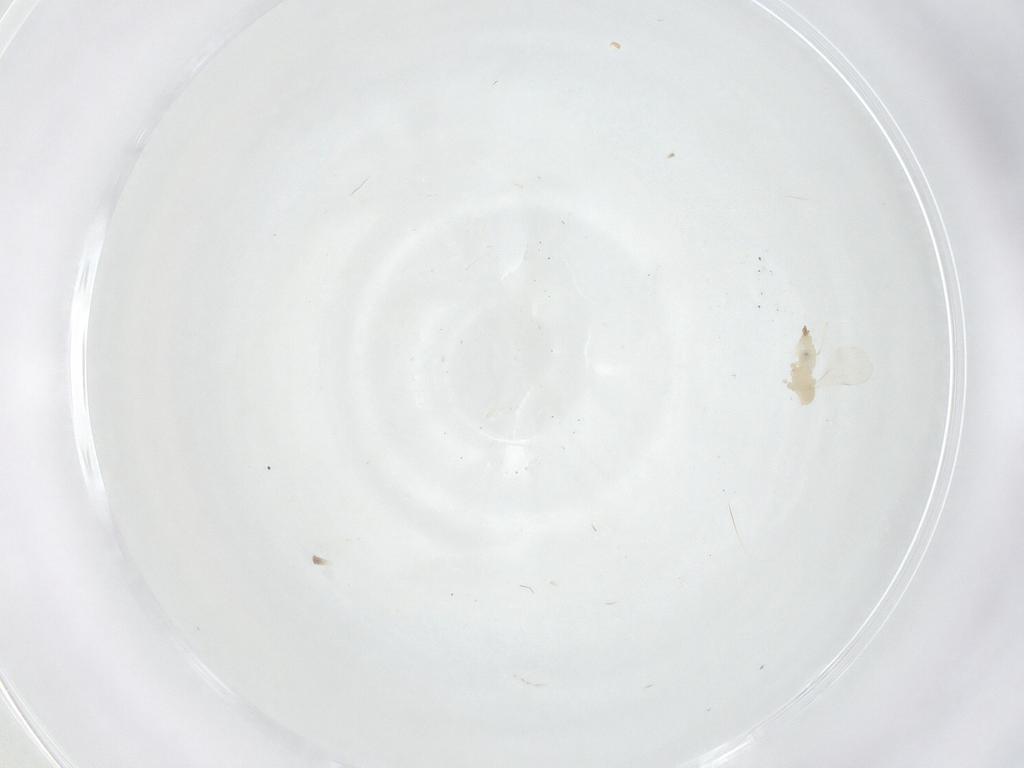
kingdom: Animalia
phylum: Arthropoda
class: Insecta
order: Diptera
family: Cecidomyiidae
